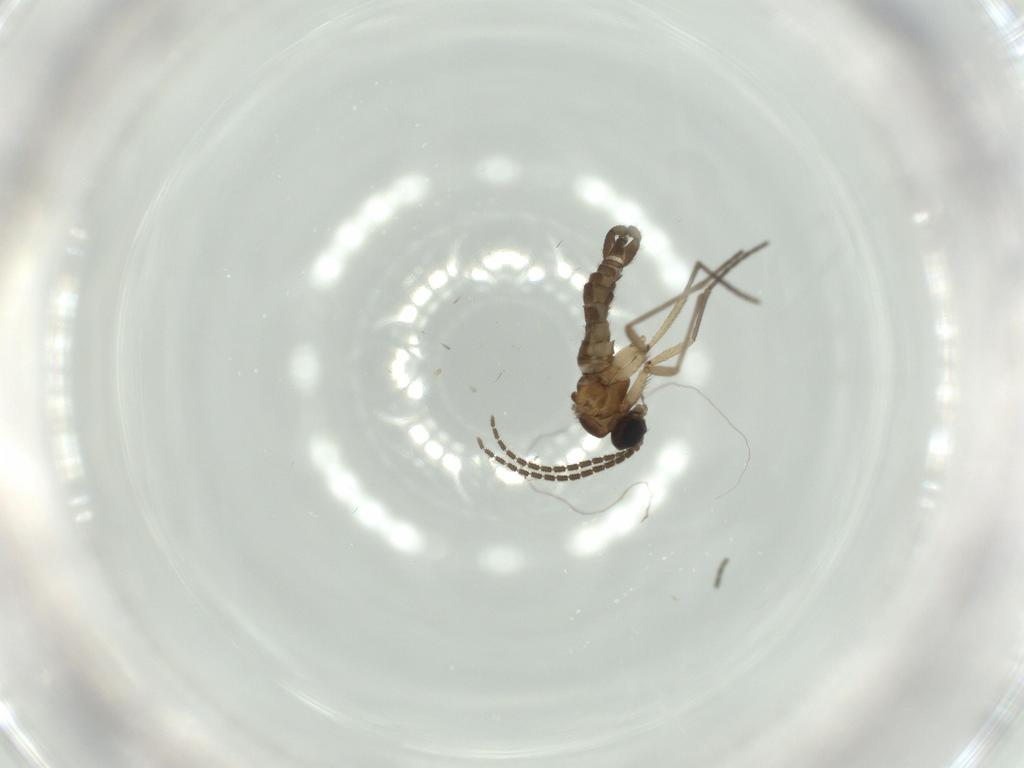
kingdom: Animalia
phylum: Arthropoda
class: Insecta
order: Diptera
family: Sciaridae
